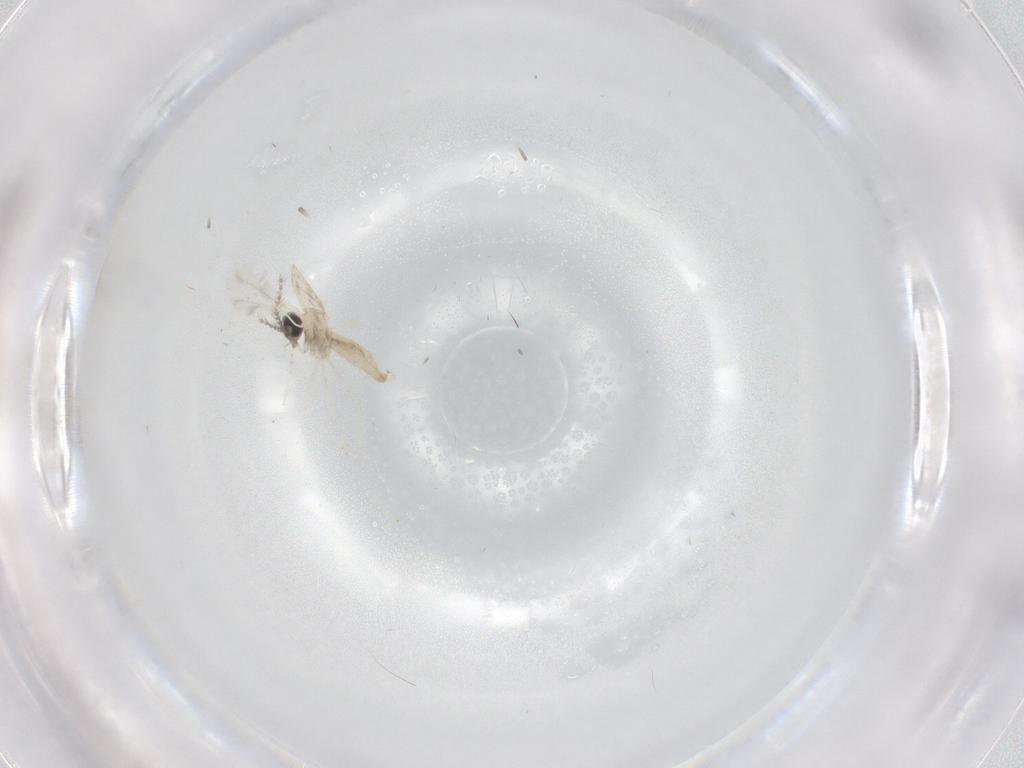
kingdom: Animalia
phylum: Arthropoda
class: Insecta
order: Diptera
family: Cecidomyiidae
